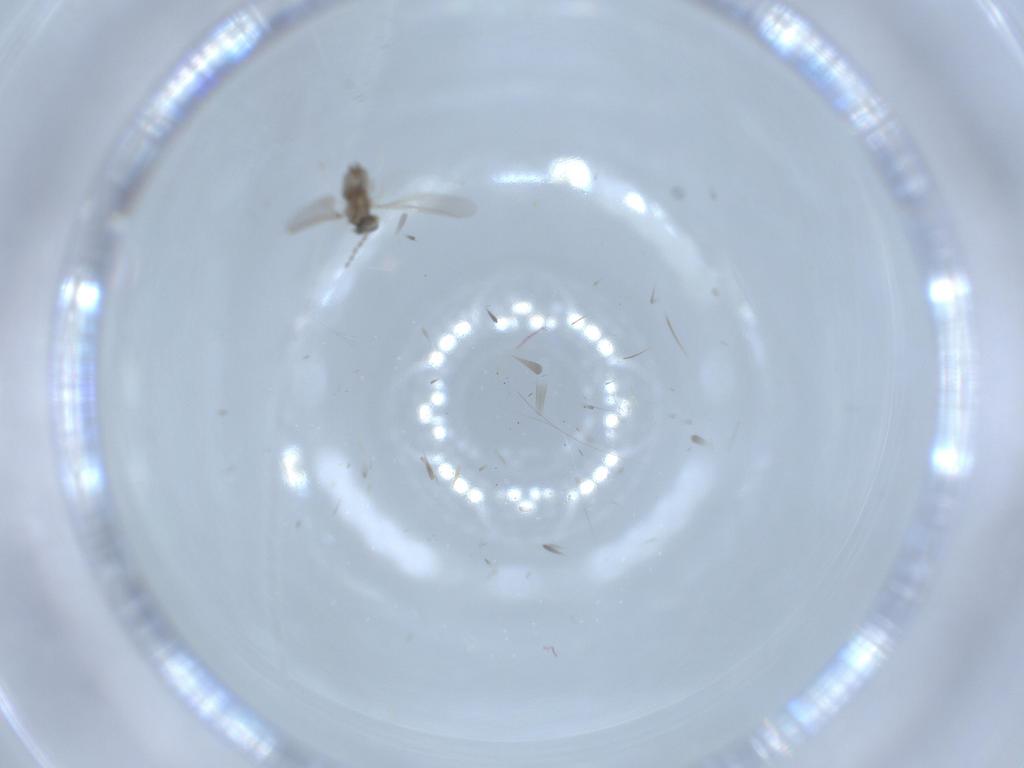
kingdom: Animalia
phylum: Arthropoda
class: Insecta
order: Diptera
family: Cecidomyiidae
